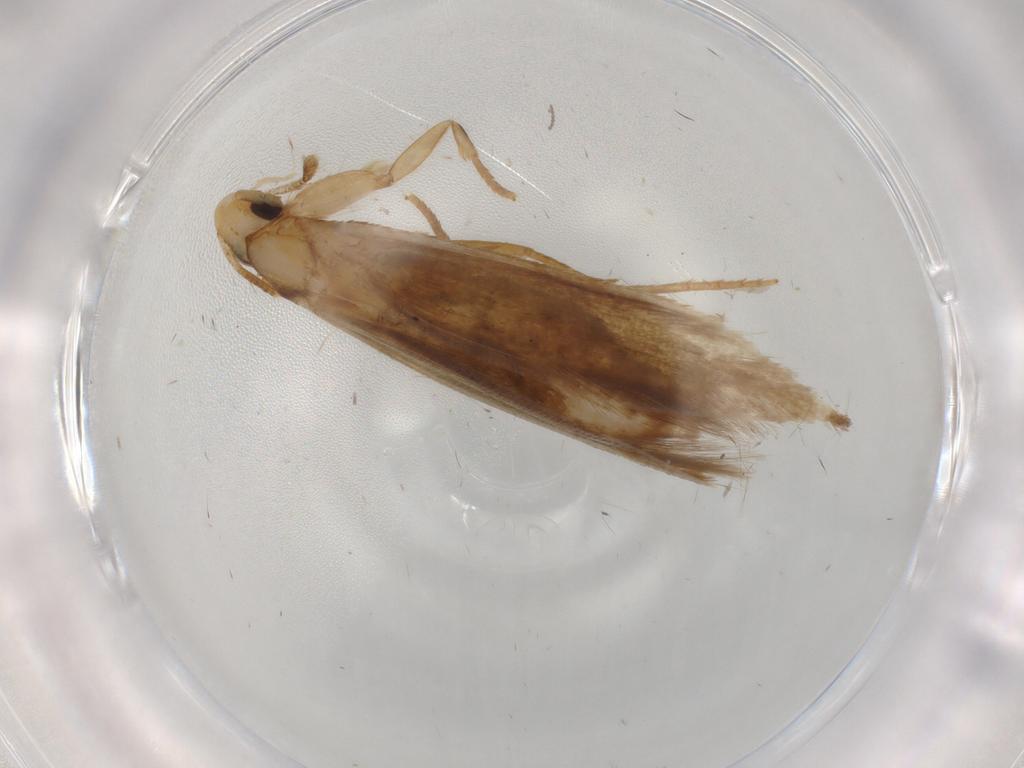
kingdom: Animalia
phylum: Arthropoda
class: Insecta
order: Lepidoptera
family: Tineidae
